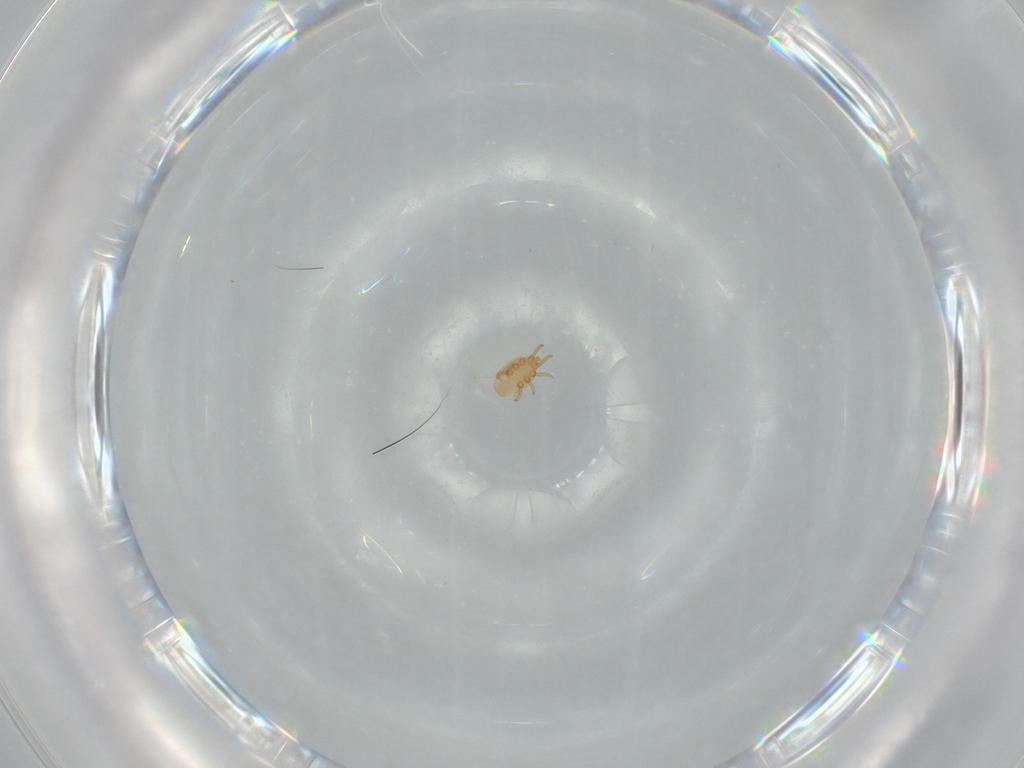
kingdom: Animalia
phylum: Arthropoda
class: Arachnida
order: Mesostigmata
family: Dinychidae
